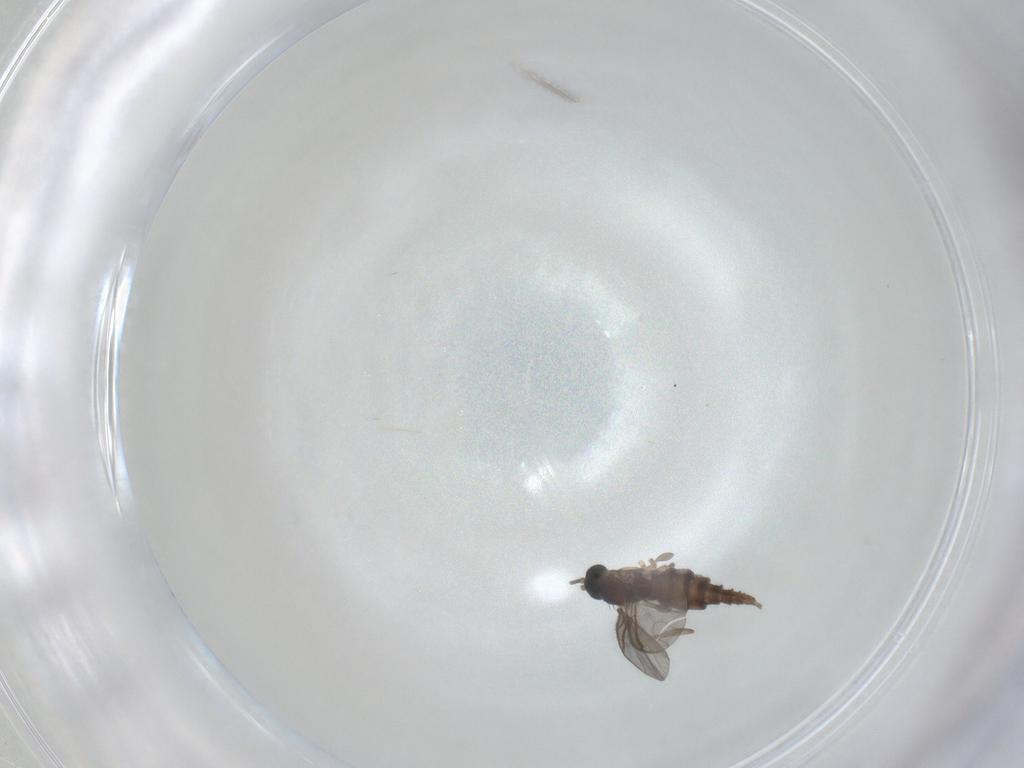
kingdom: Animalia
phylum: Arthropoda
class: Insecta
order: Diptera
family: Sciaridae
